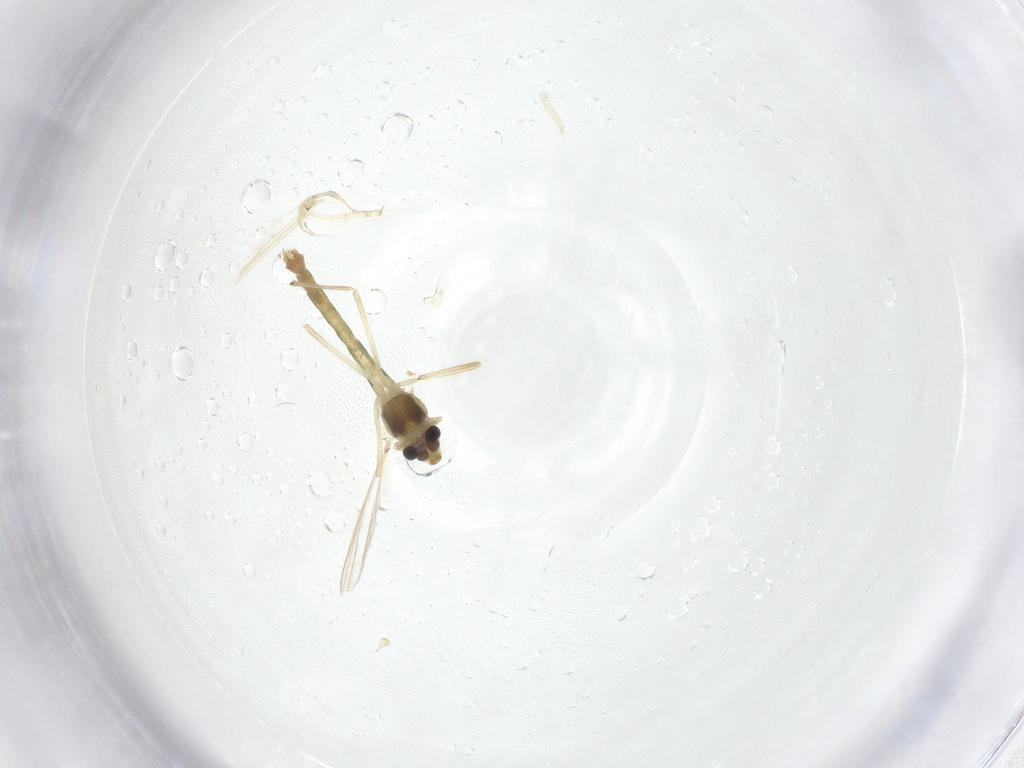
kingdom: Animalia
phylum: Arthropoda
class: Insecta
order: Diptera
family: Chironomidae
